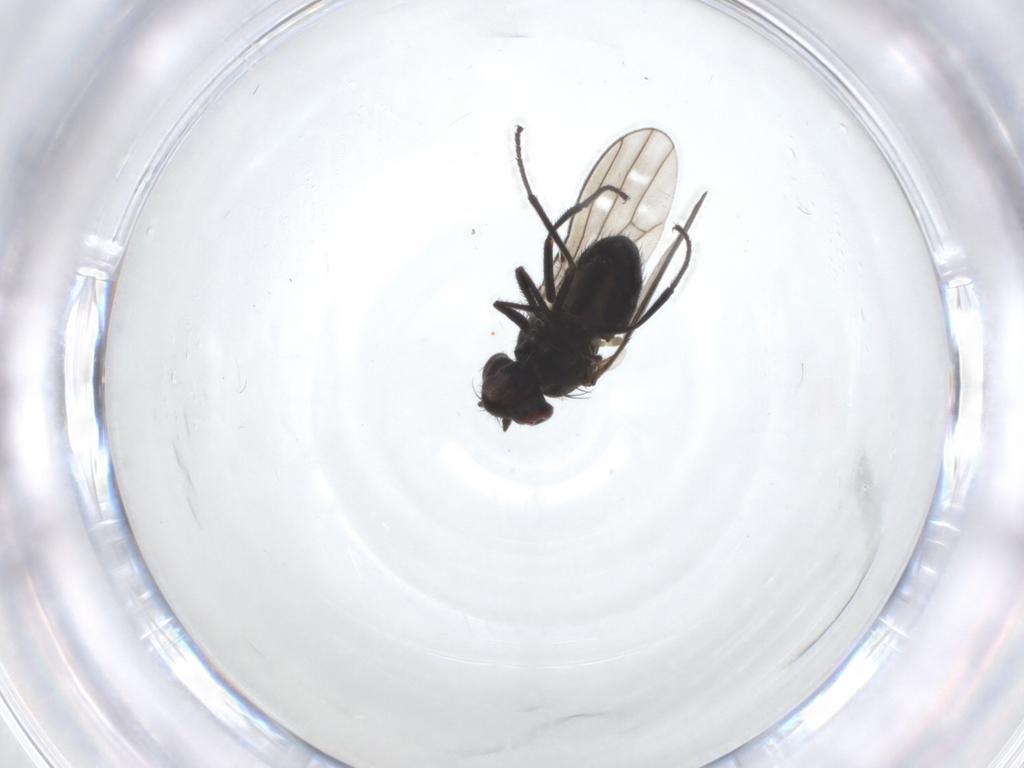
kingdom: Animalia
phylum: Arthropoda
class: Insecta
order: Diptera
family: Ephydridae
